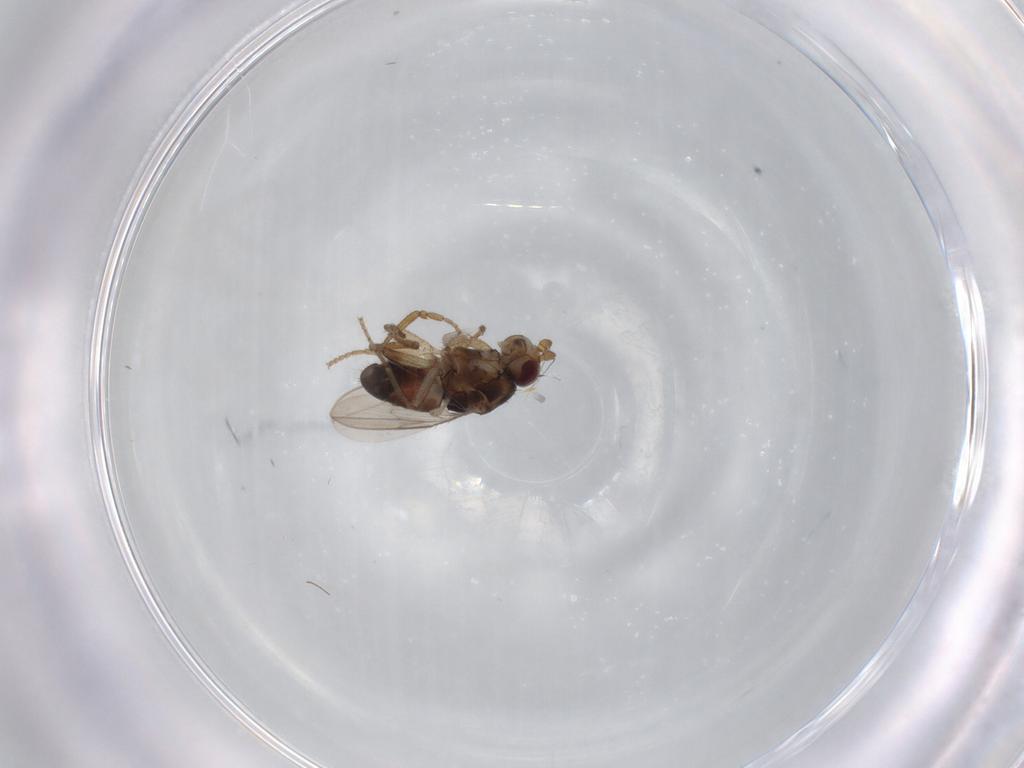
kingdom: Animalia
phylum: Arthropoda
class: Insecta
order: Diptera
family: Sphaeroceridae
